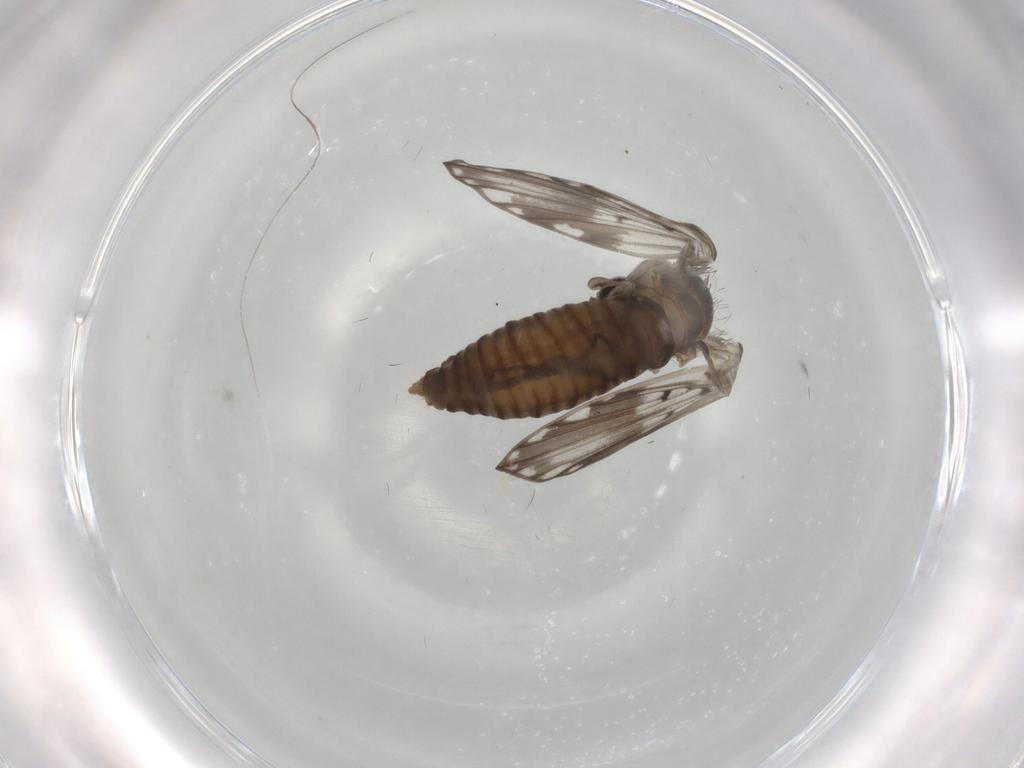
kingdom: Animalia
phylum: Arthropoda
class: Insecta
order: Diptera
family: Psychodidae
